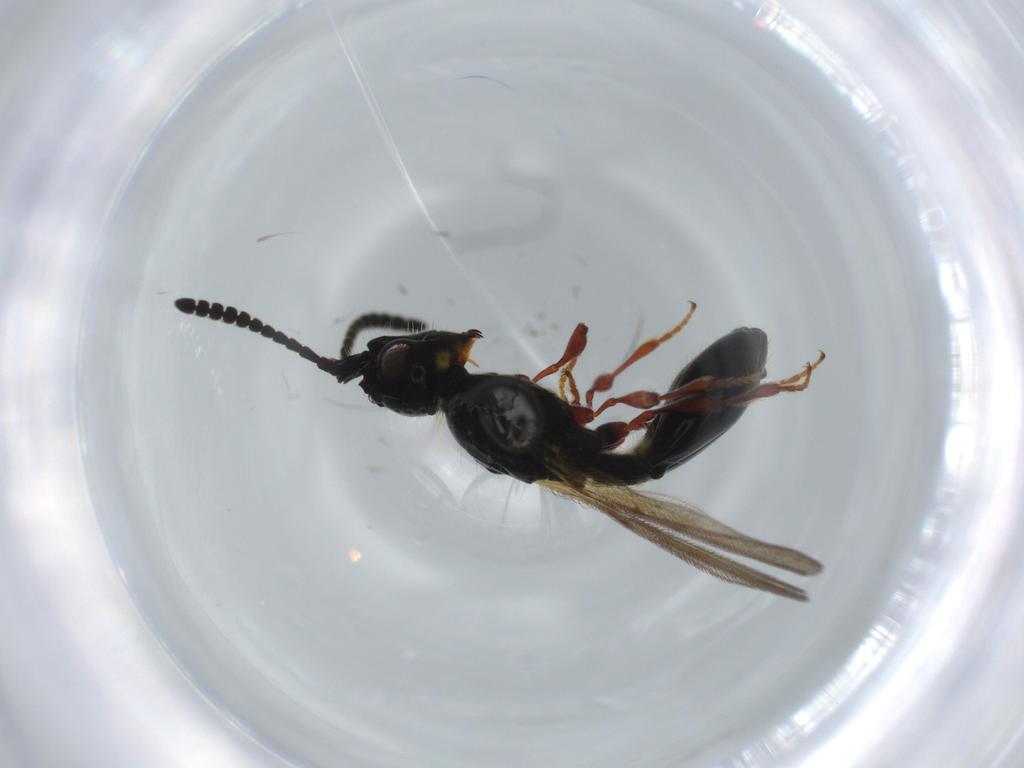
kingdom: Animalia
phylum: Arthropoda
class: Insecta
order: Hymenoptera
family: Diapriidae
